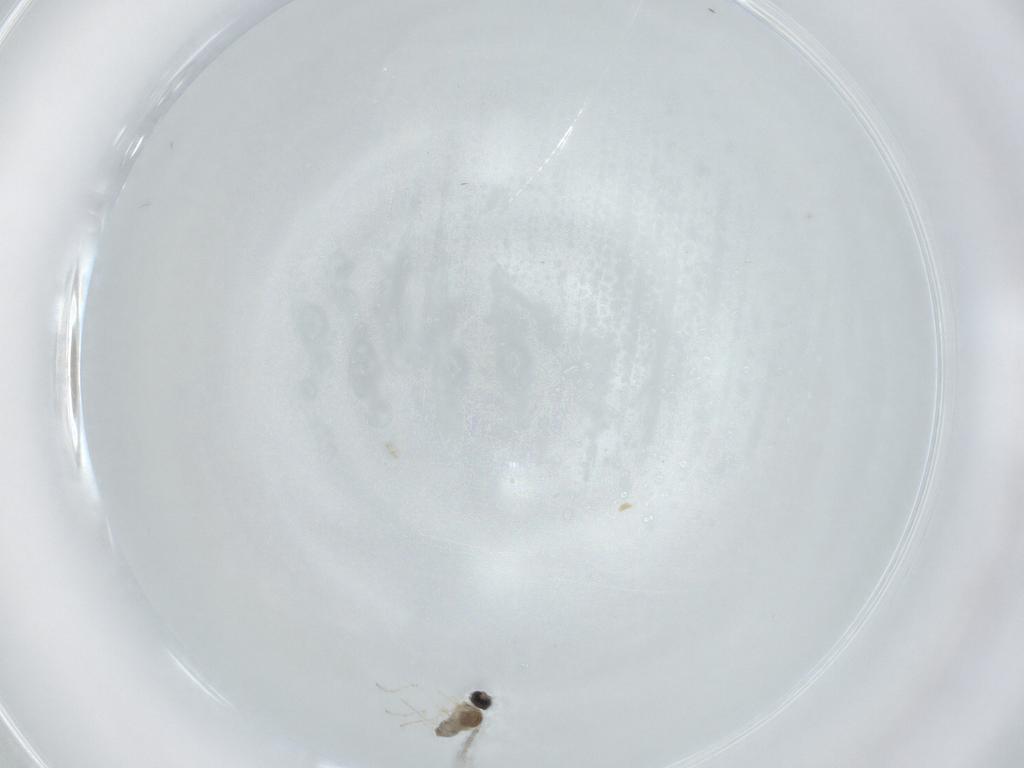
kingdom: Animalia
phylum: Arthropoda
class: Insecta
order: Diptera
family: Cecidomyiidae
